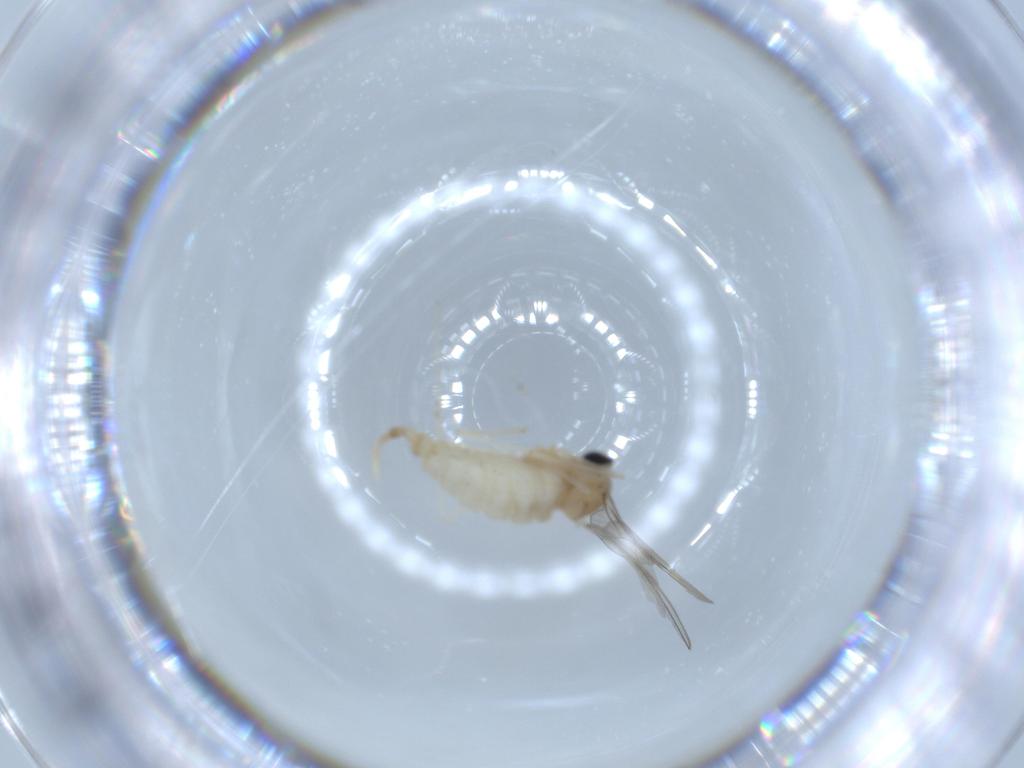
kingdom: Animalia
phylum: Arthropoda
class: Insecta
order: Diptera
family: Cecidomyiidae
